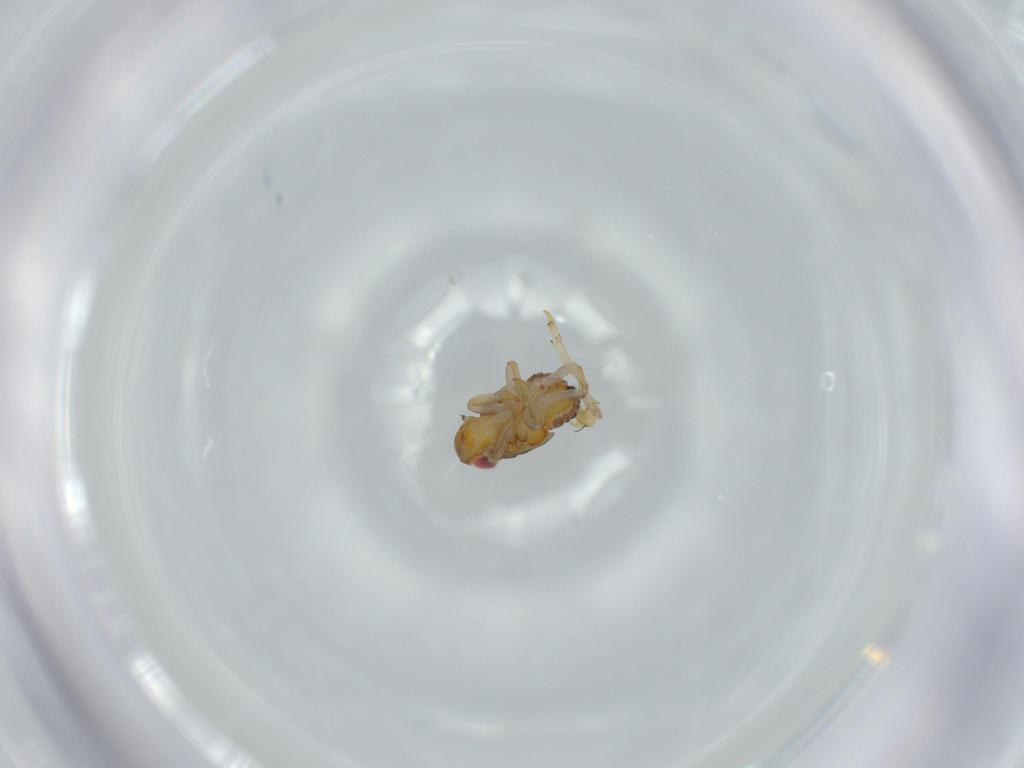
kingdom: Animalia
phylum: Arthropoda
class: Insecta
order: Hemiptera
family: Issidae
